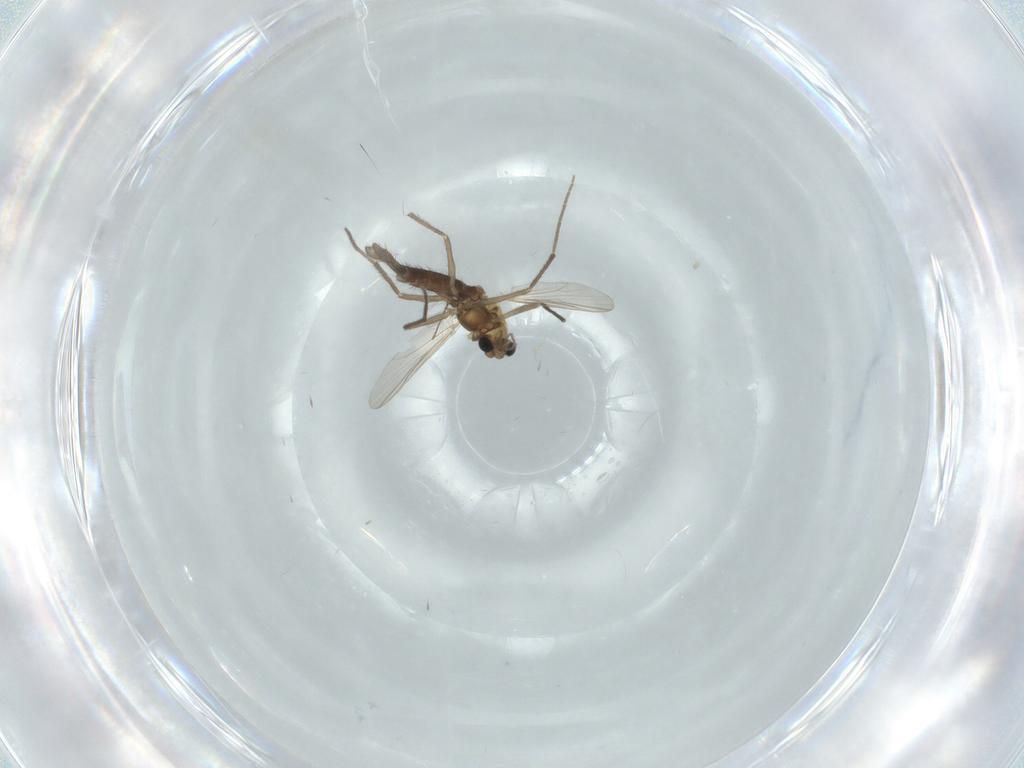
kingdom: Animalia
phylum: Arthropoda
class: Insecta
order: Diptera
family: Chironomidae
